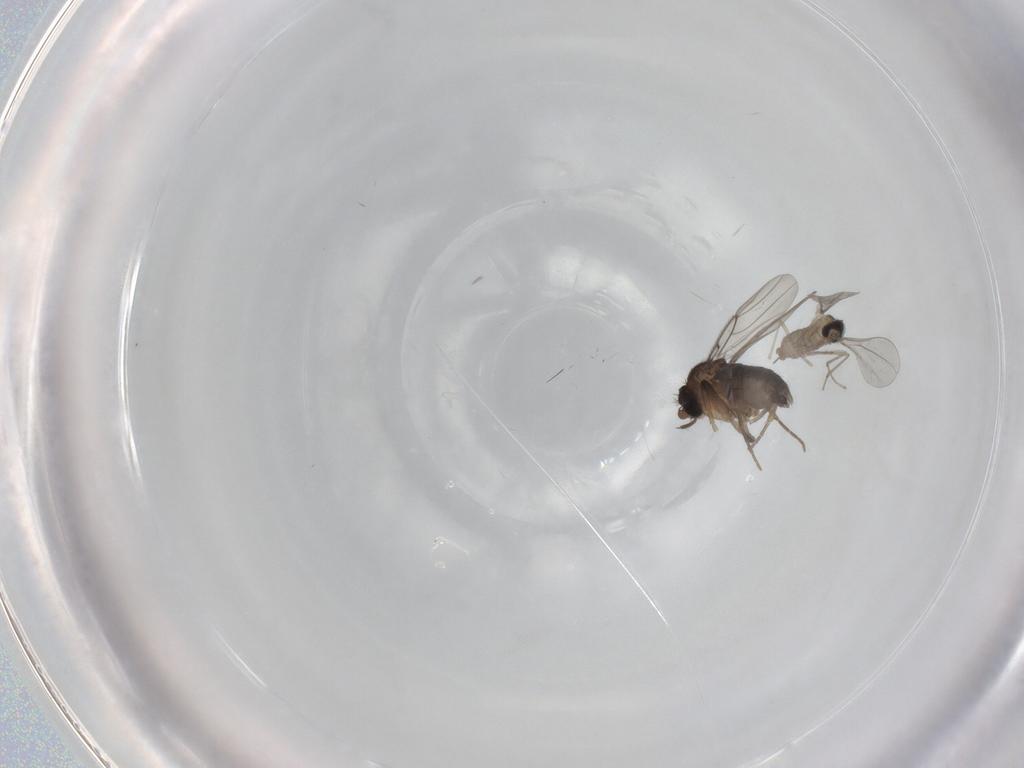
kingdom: Animalia
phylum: Arthropoda
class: Insecta
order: Diptera
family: Cecidomyiidae
